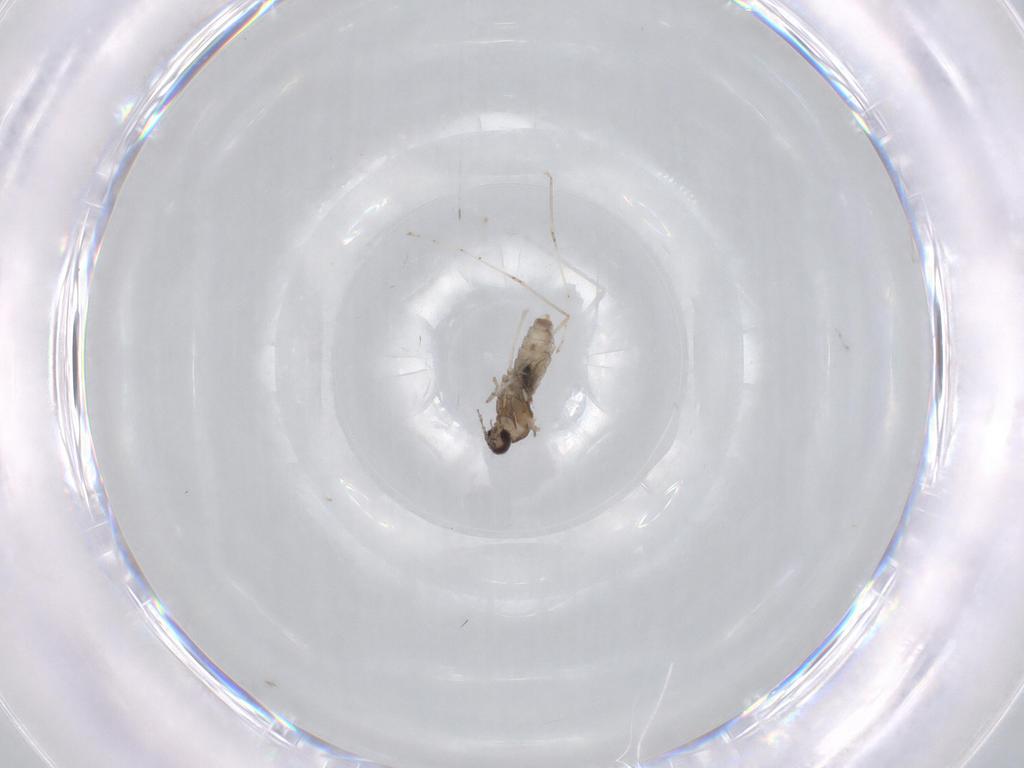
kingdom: Animalia
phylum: Arthropoda
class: Insecta
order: Diptera
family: Cecidomyiidae
